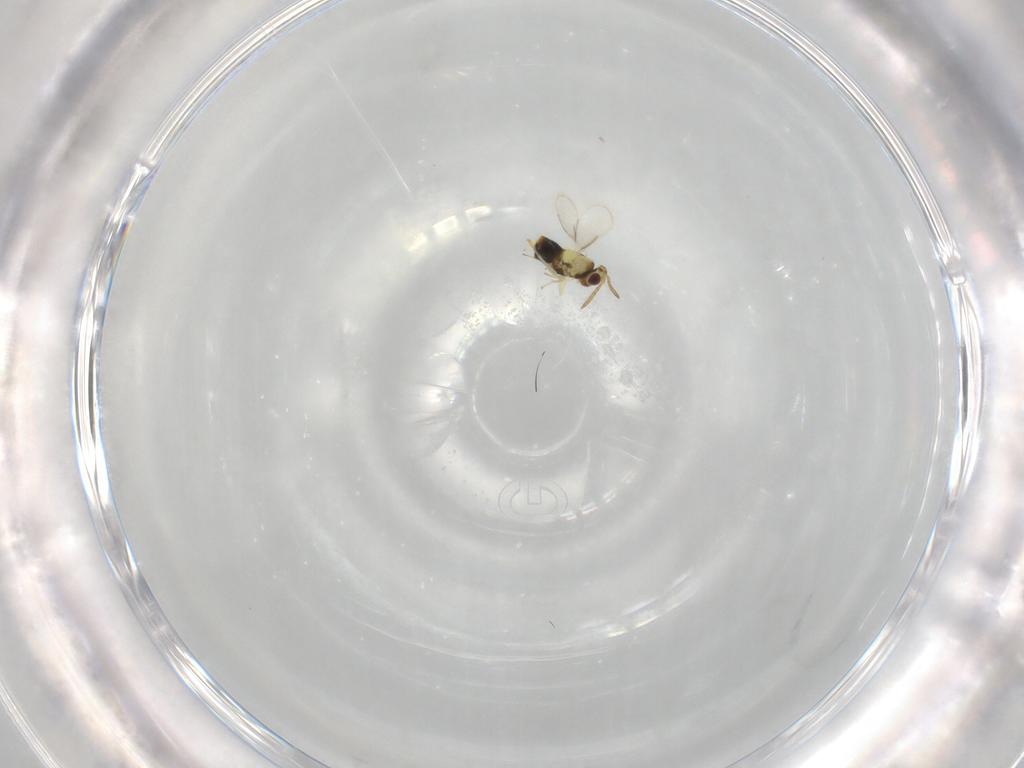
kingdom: Animalia
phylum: Arthropoda
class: Insecta
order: Hymenoptera
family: Aphelinidae
